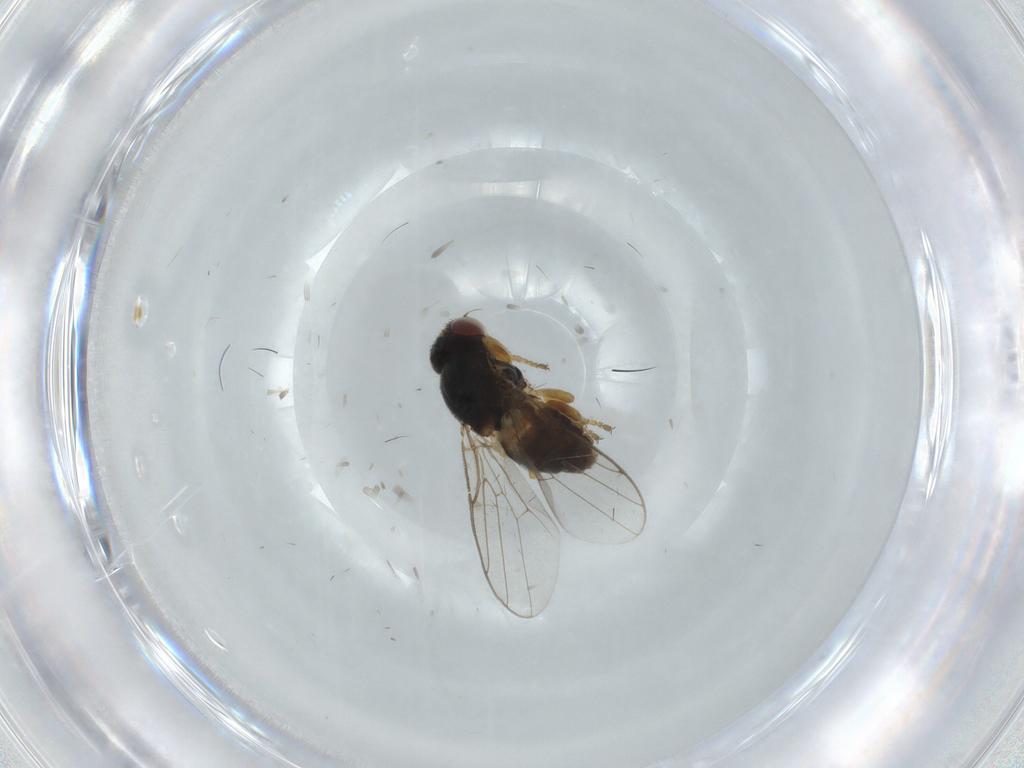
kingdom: Animalia
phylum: Arthropoda
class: Insecta
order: Diptera
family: Chloropidae
